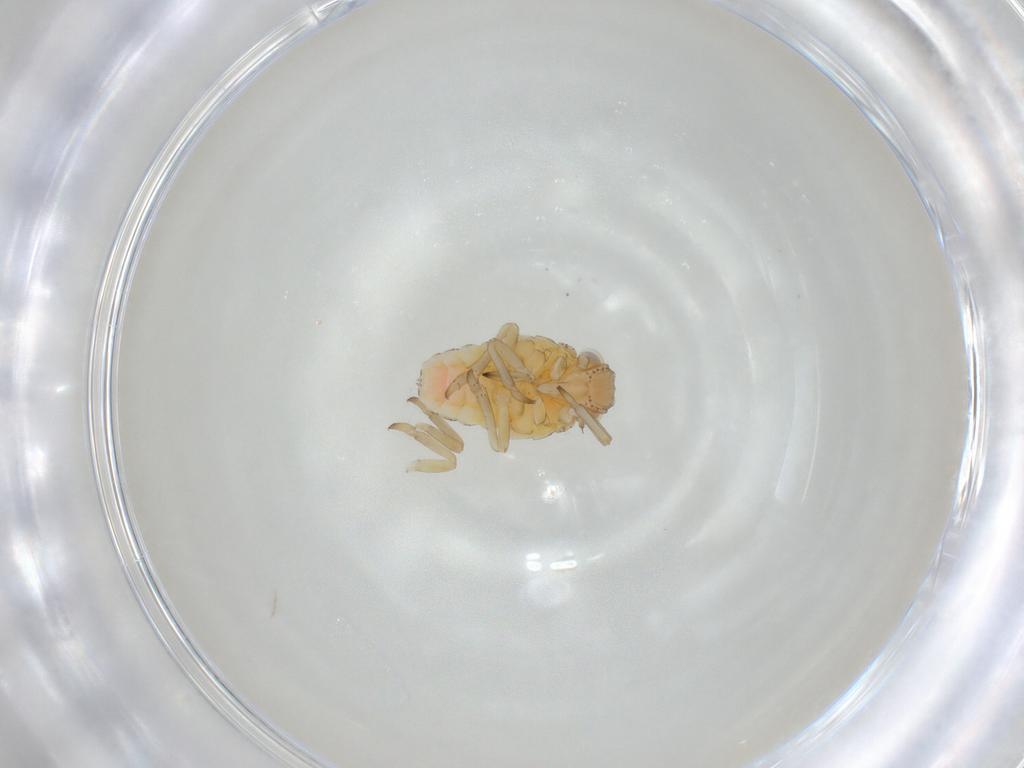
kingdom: Animalia
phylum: Arthropoda
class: Insecta
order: Hemiptera
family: Tropiduchidae
